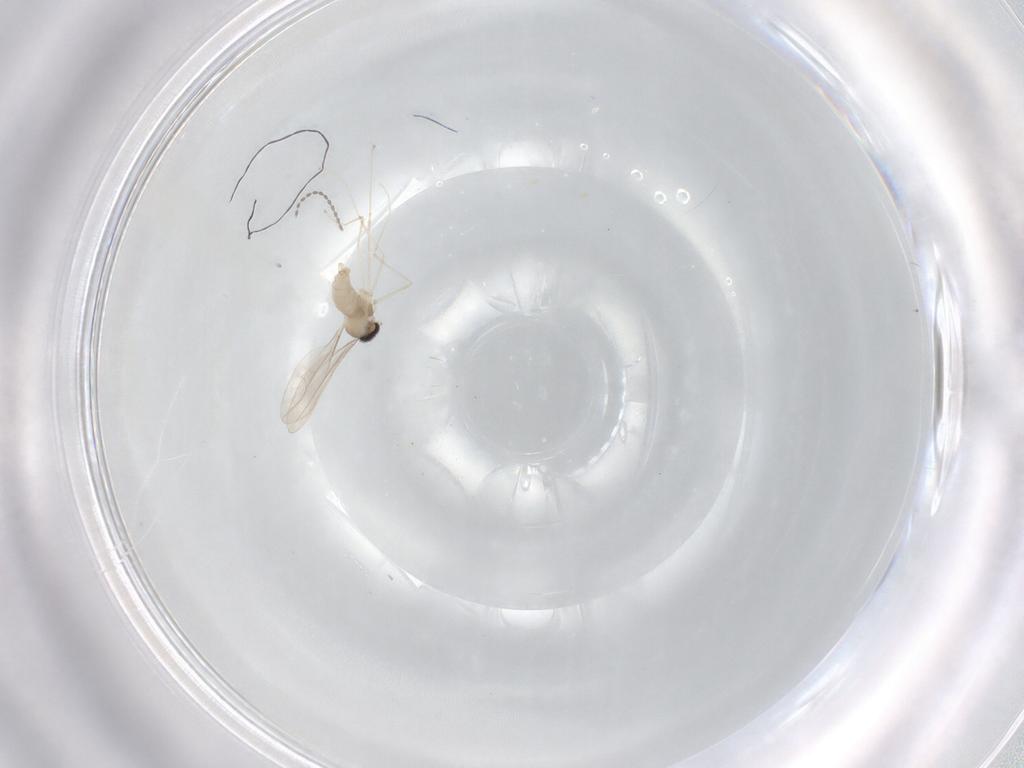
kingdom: Animalia
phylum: Arthropoda
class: Insecta
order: Diptera
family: Cecidomyiidae
